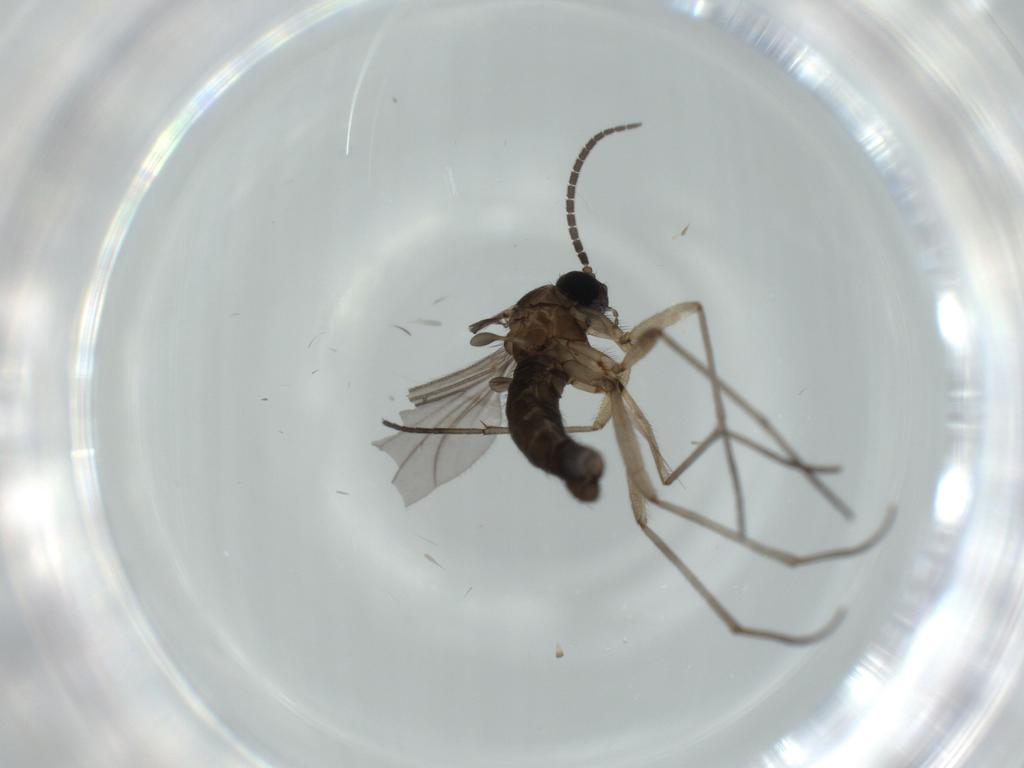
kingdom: Animalia
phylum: Arthropoda
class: Insecta
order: Diptera
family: Sciaridae
